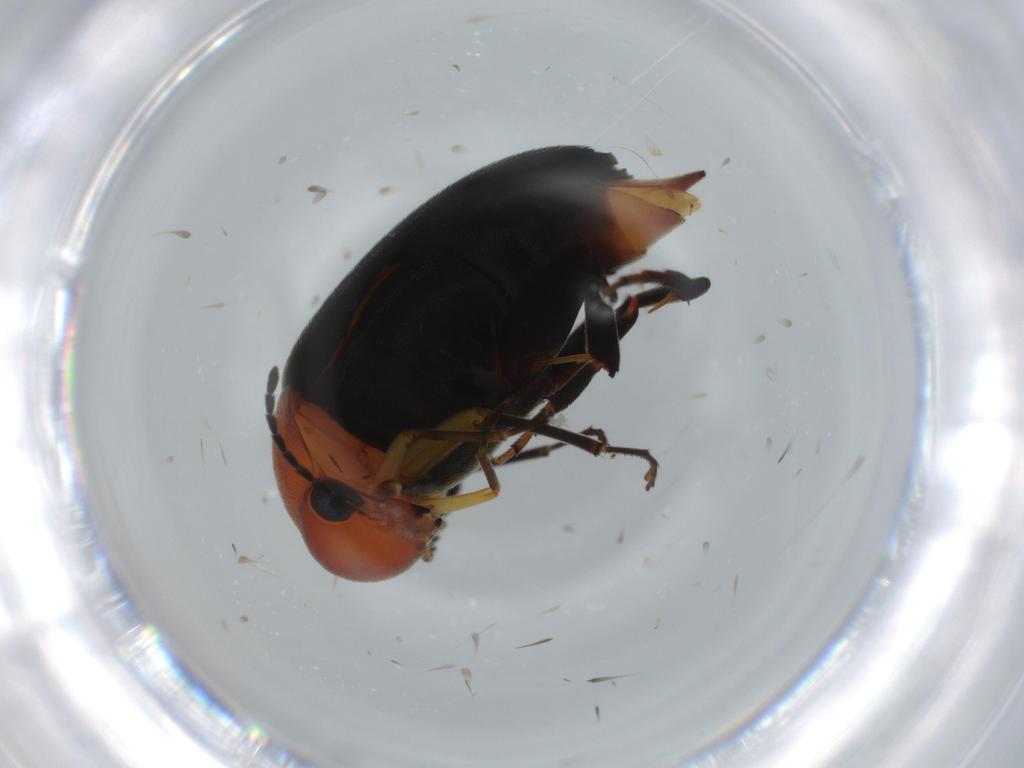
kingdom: Animalia
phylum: Arthropoda
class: Insecta
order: Coleoptera
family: Mordellidae
